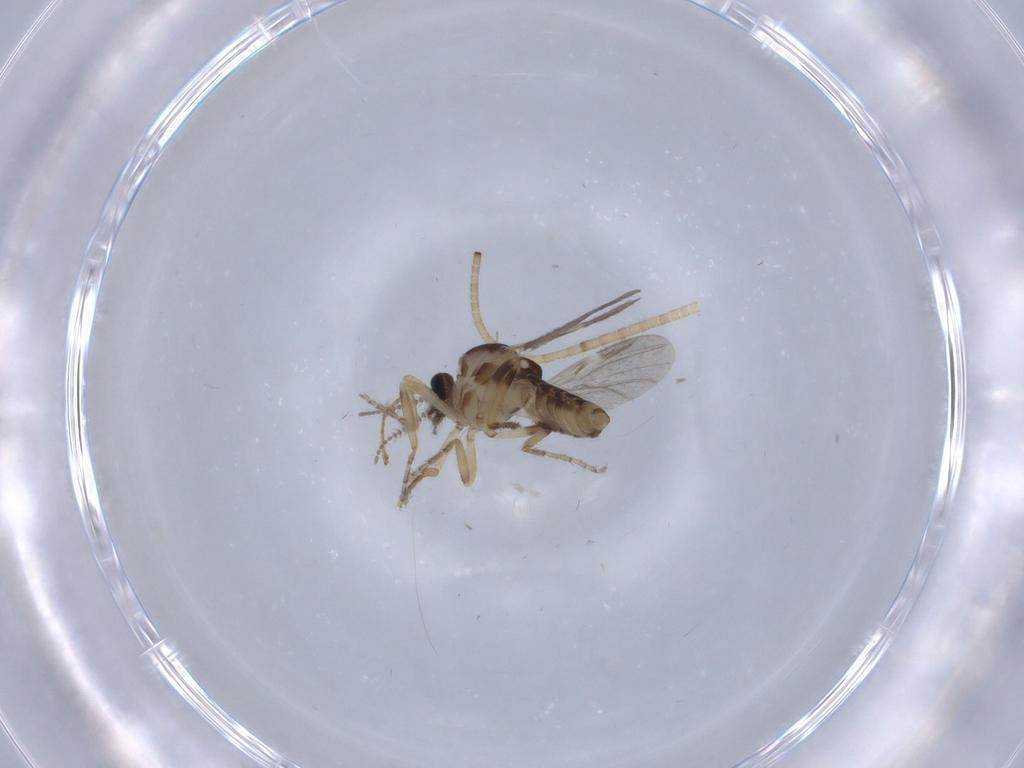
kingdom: Animalia
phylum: Arthropoda
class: Insecta
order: Diptera
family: Ceratopogonidae
